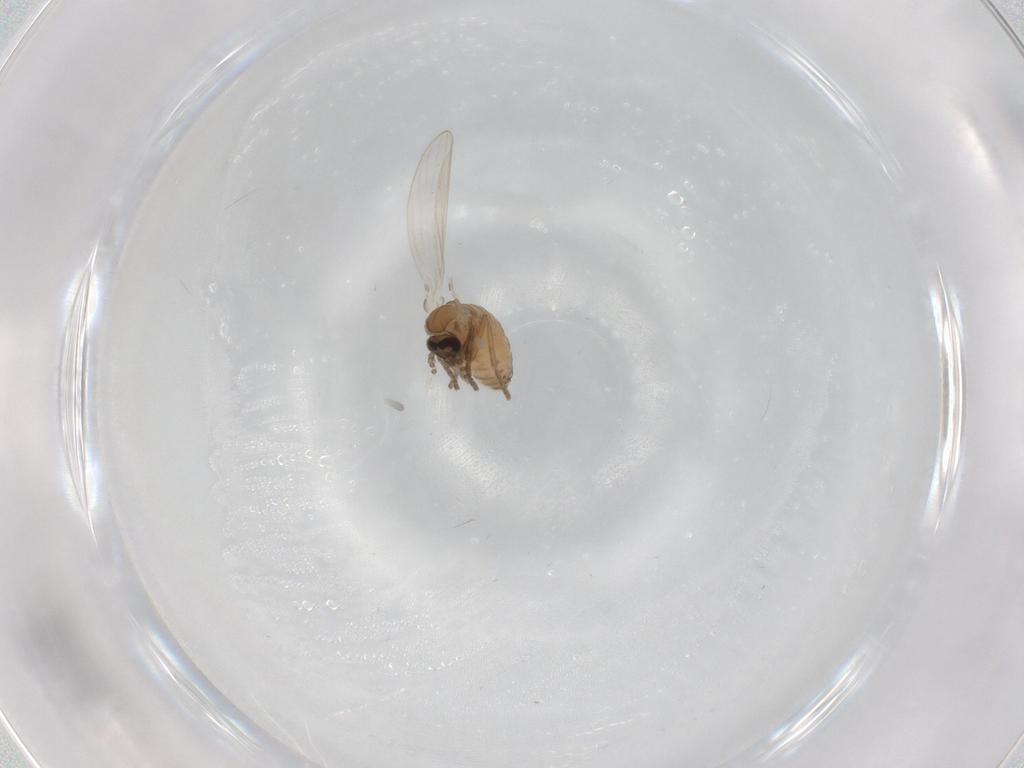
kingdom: Animalia
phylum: Arthropoda
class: Insecta
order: Diptera
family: Psychodidae
